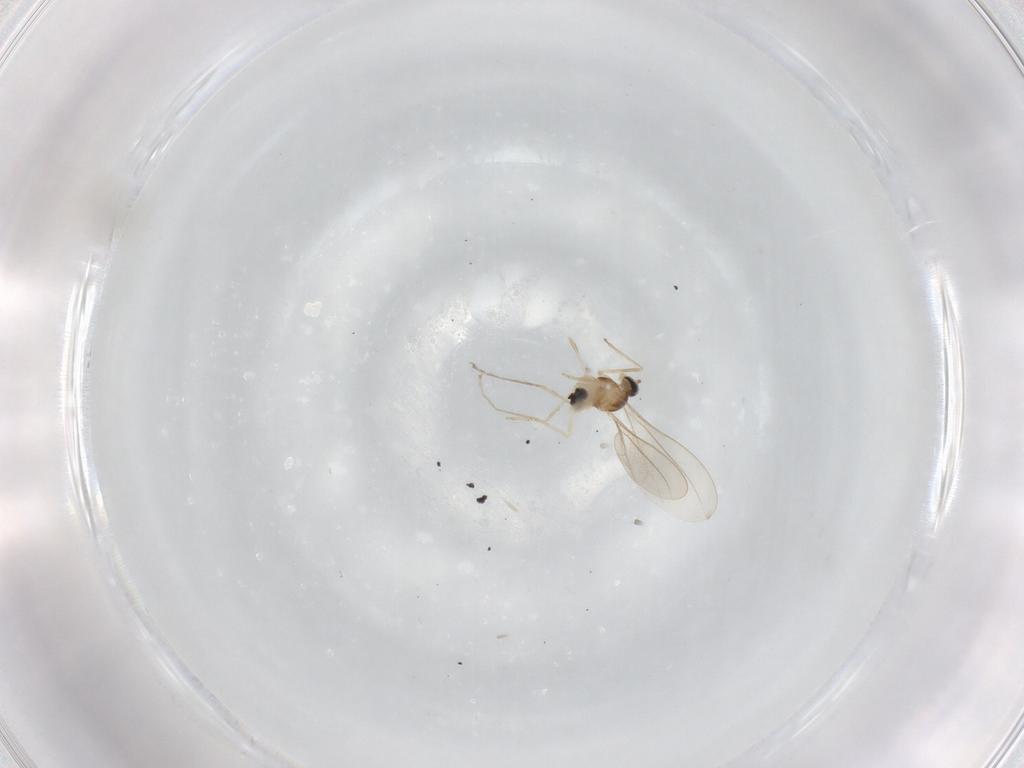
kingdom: Animalia
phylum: Arthropoda
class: Insecta
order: Diptera
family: Cecidomyiidae
